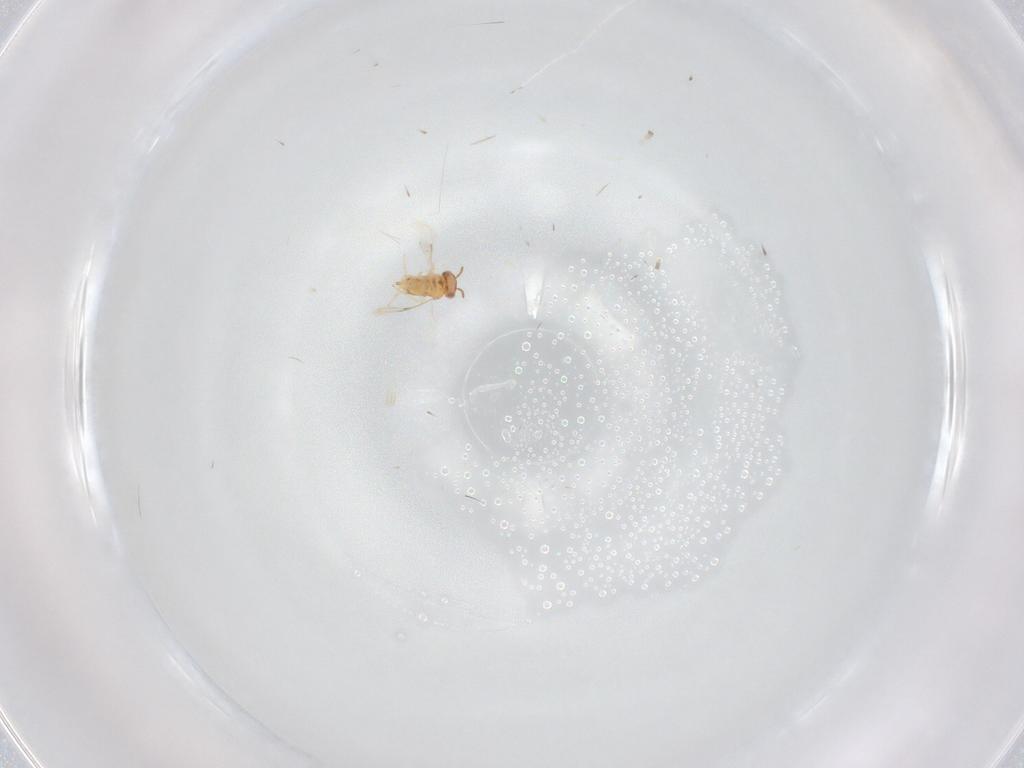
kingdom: Animalia
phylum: Arthropoda
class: Insecta
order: Hymenoptera
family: Aphelinidae
